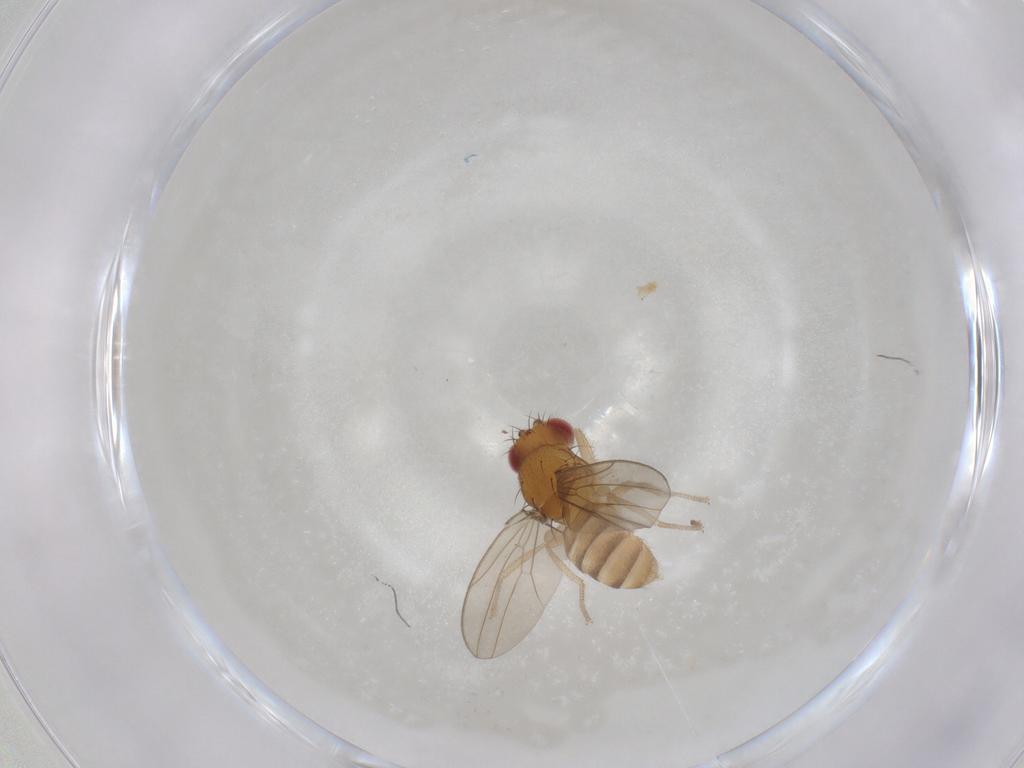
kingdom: Animalia
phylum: Arthropoda
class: Insecta
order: Diptera
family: Drosophilidae
